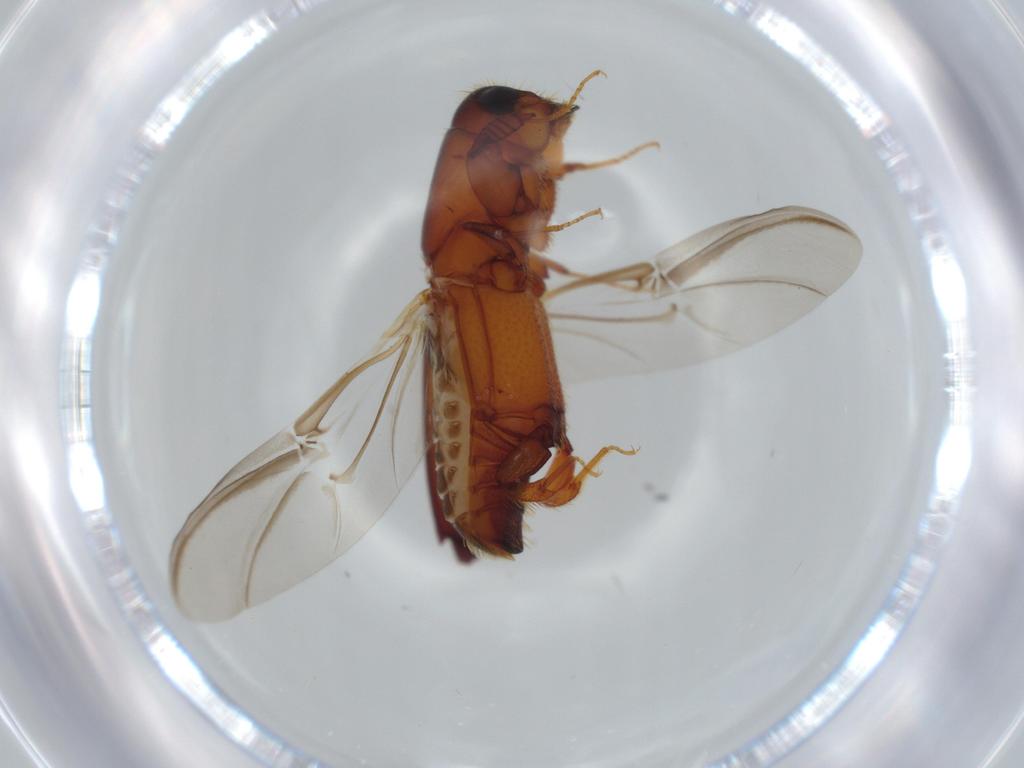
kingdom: Animalia
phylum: Arthropoda
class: Insecta
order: Coleoptera
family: Curculionidae
